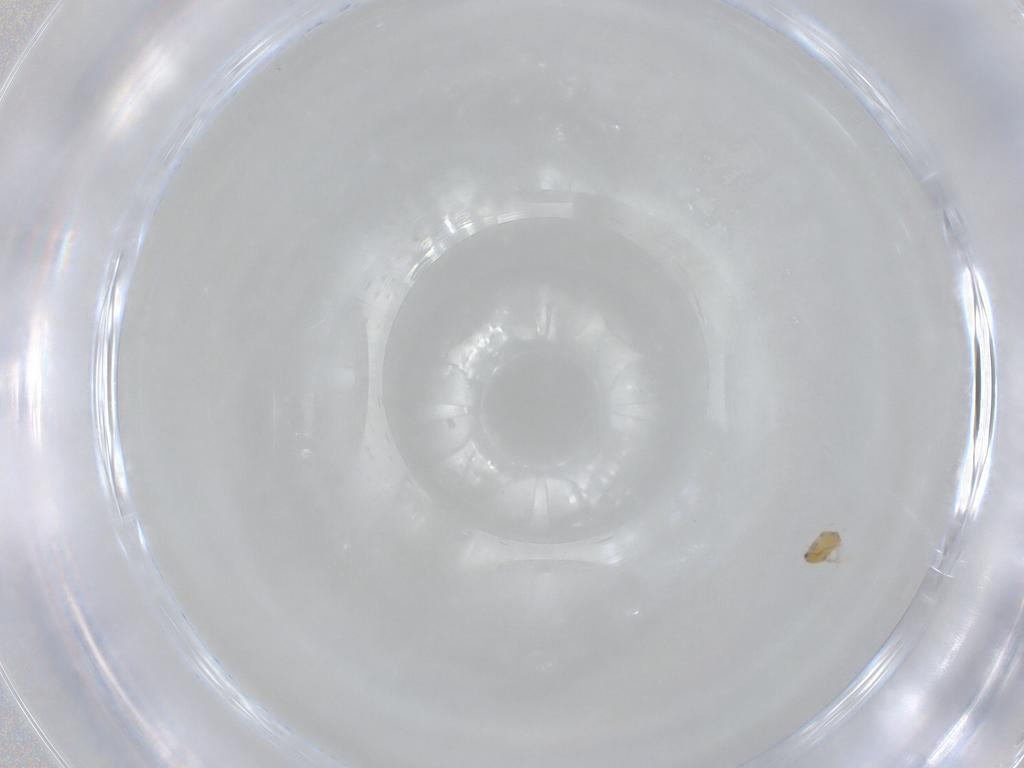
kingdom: Animalia
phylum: Arthropoda
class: Insecta
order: Hymenoptera
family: Trichogrammatidae
